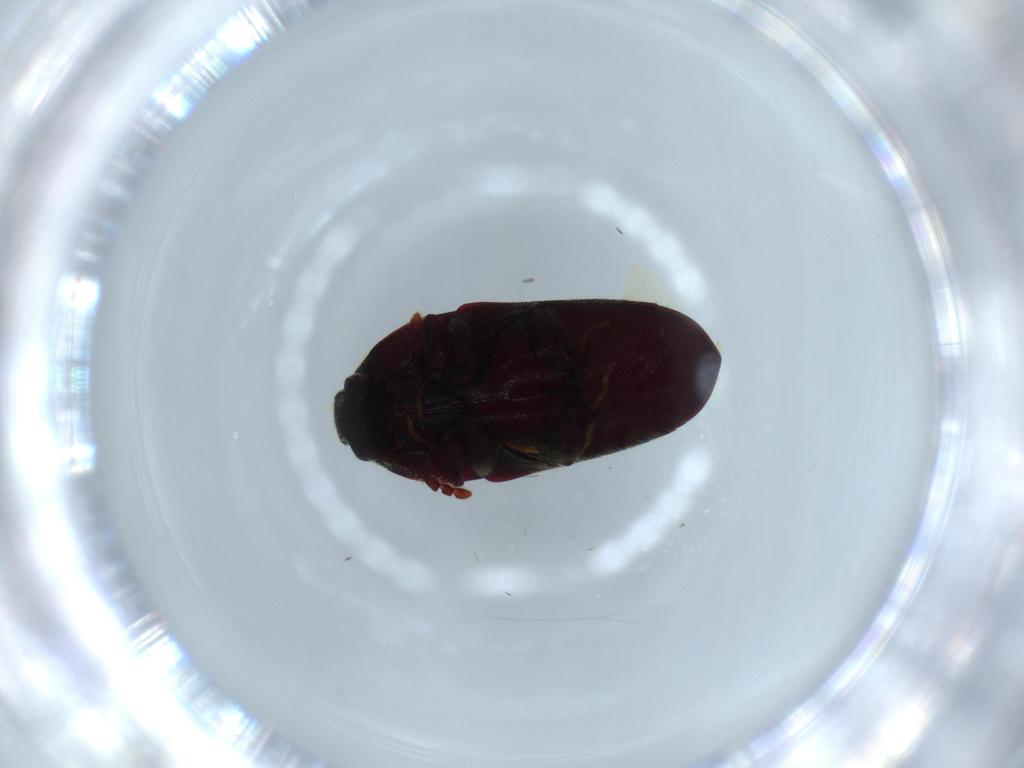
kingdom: Animalia
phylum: Arthropoda
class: Insecta
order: Coleoptera
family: Throscidae
